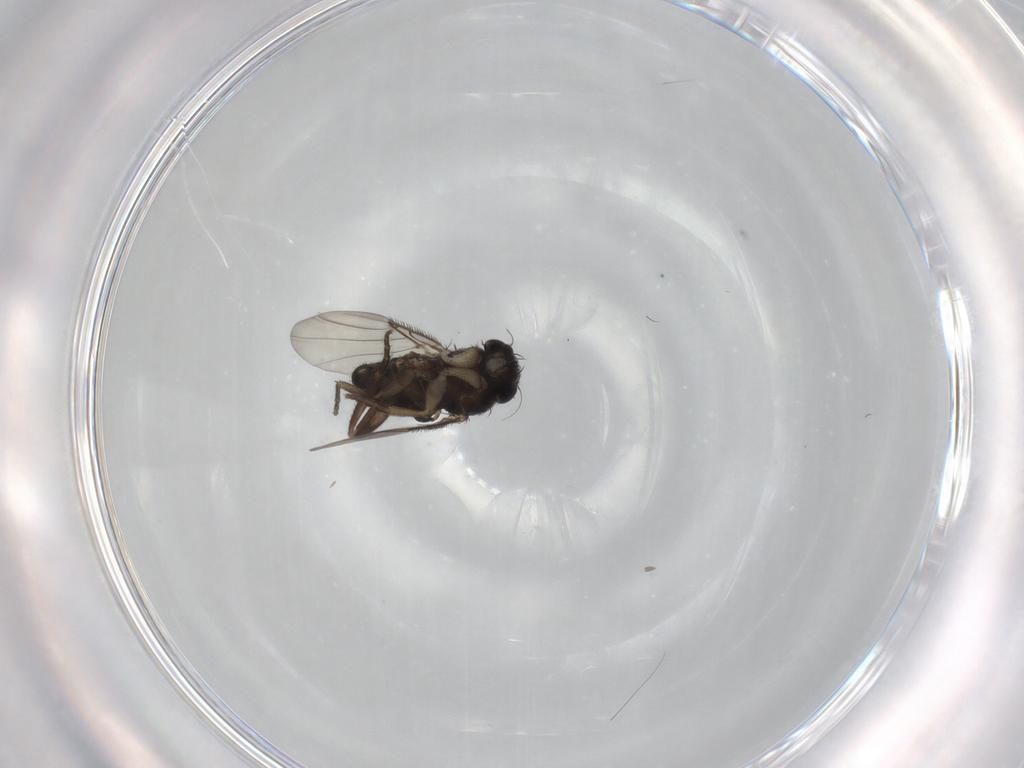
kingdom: Animalia
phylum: Arthropoda
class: Insecta
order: Diptera
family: Phoridae
